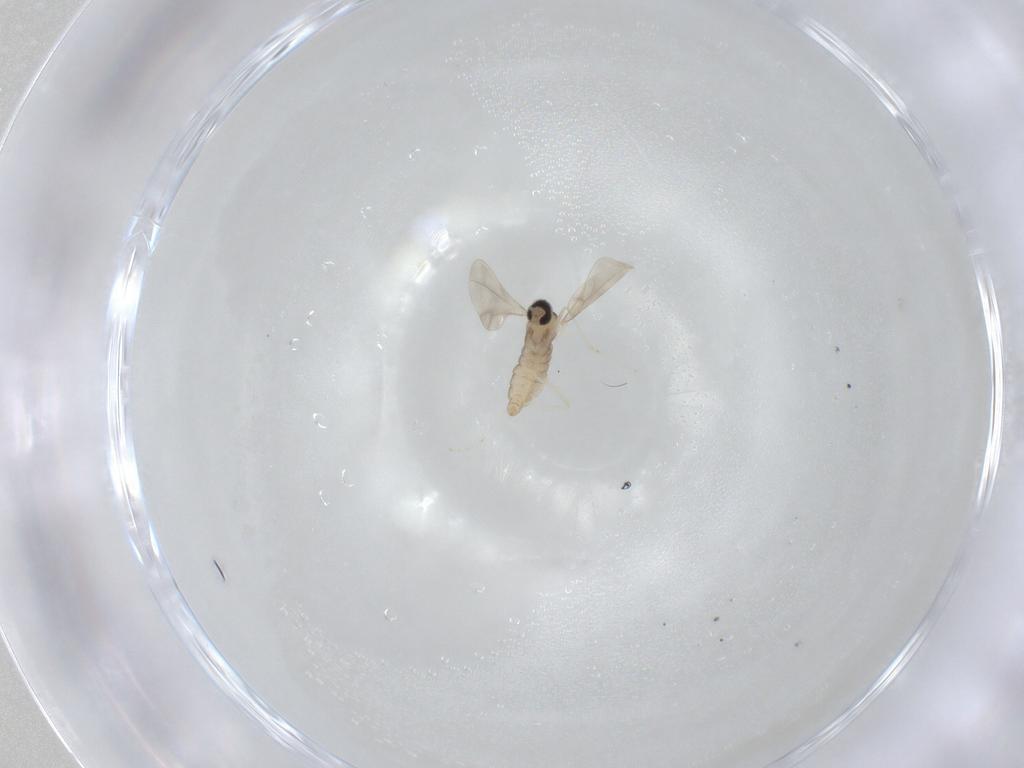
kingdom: Animalia
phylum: Arthropoda
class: Insecta
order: Diptera
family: Cecidomyiidae
